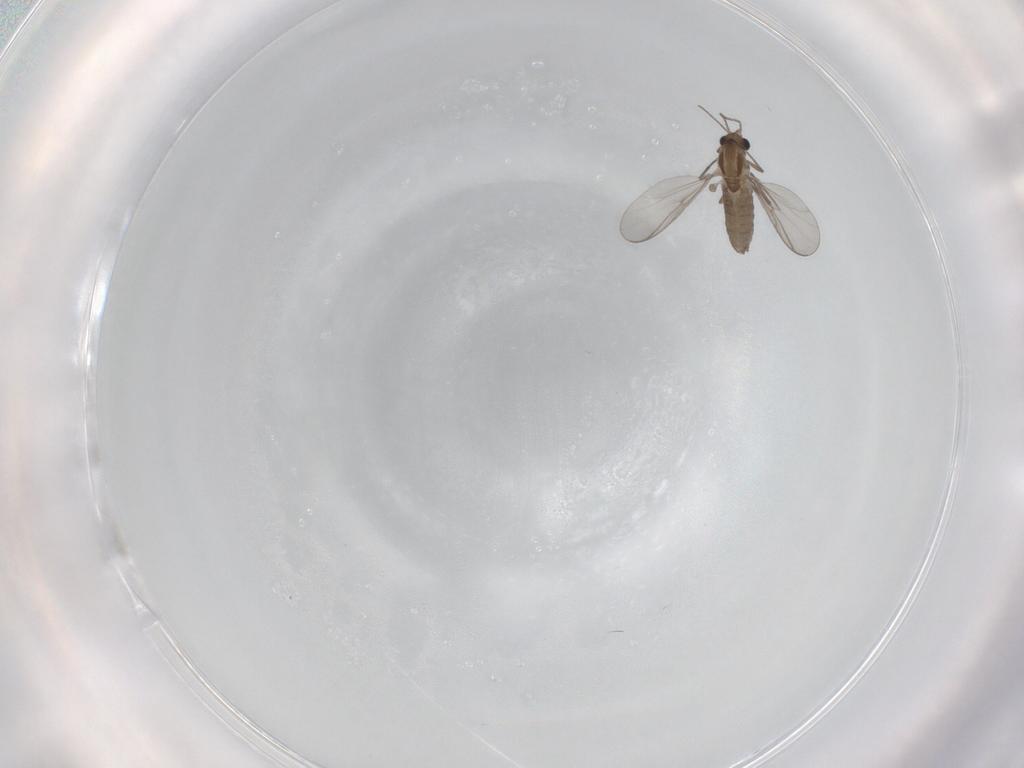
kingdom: Animalia
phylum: Arthropoda
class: Insecta
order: Diptera
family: Chironomidae
